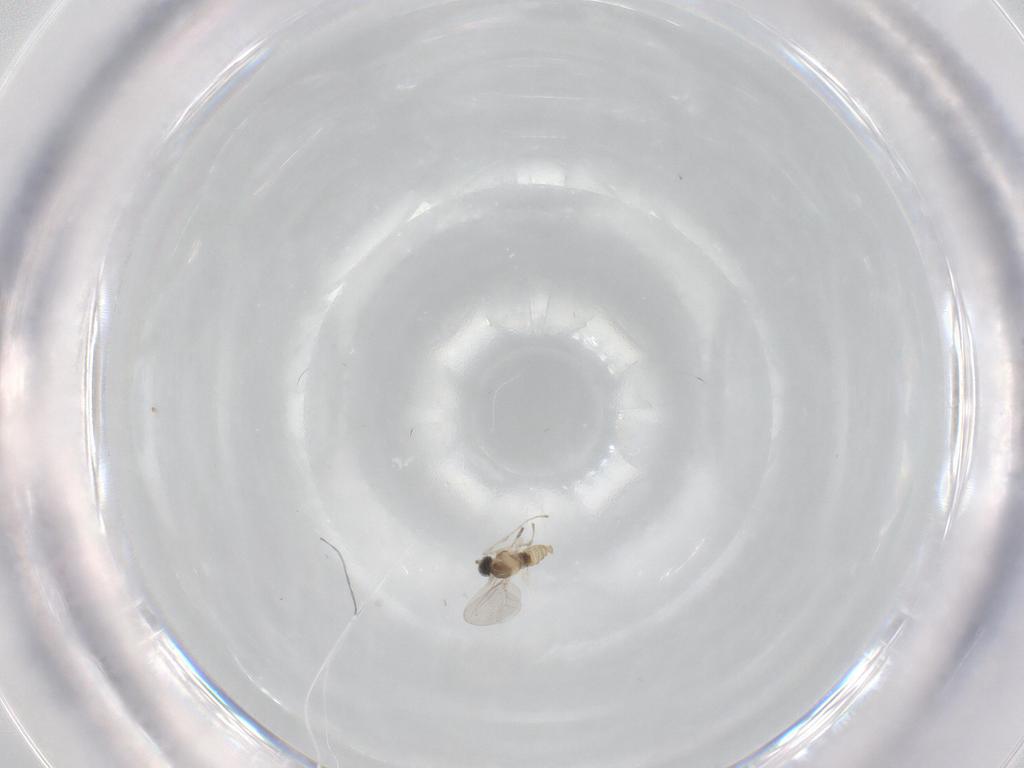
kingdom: Animalia
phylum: Arthropoda
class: Insecta
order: Diptera
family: Cecidomyiidae
